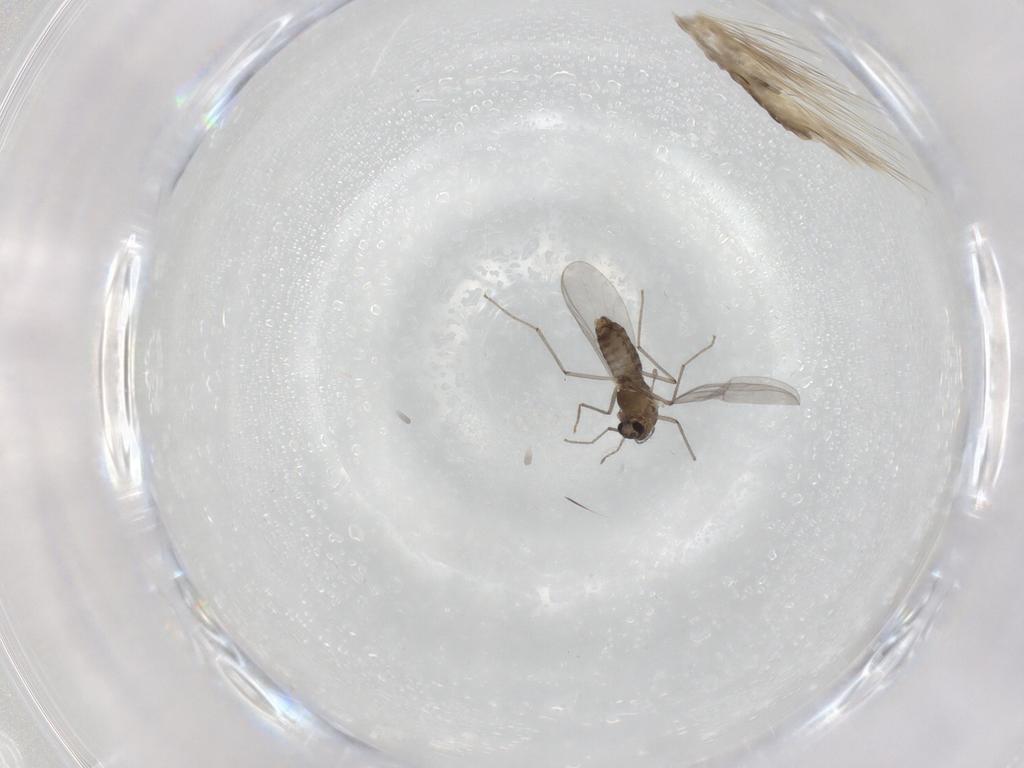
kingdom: Animalia
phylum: Arthropoda
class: Insecta
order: Diptera
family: Phoridae
